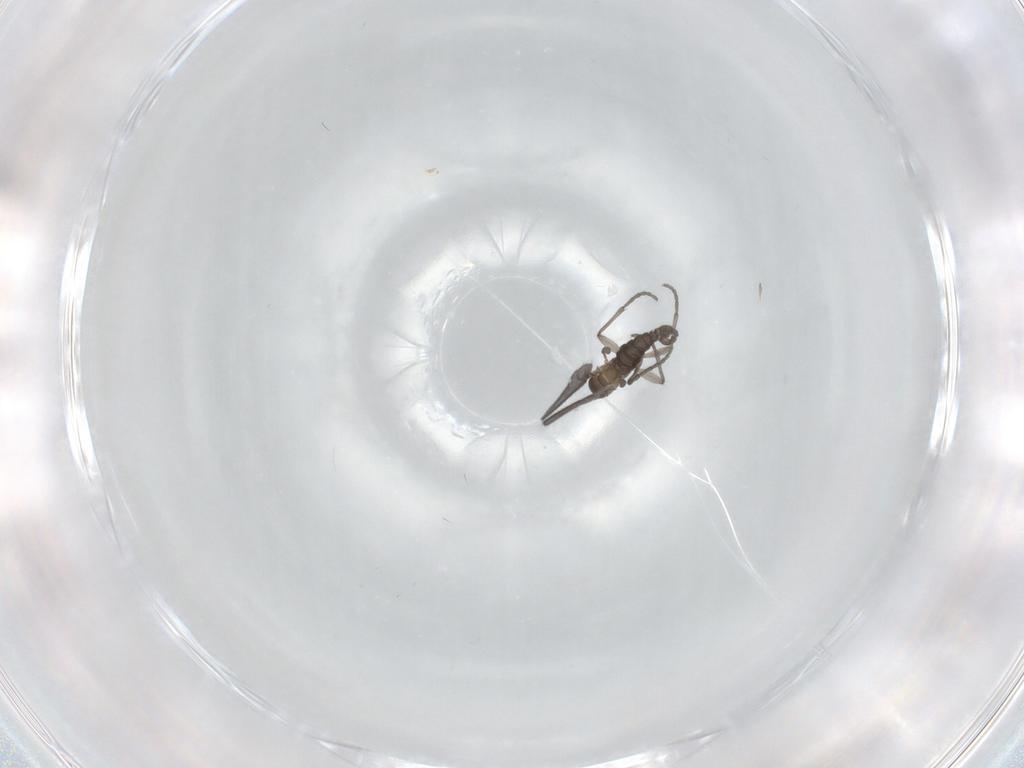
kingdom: Animalia
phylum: Arthropoda
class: Insecta
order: Diptera
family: Sciaridae
